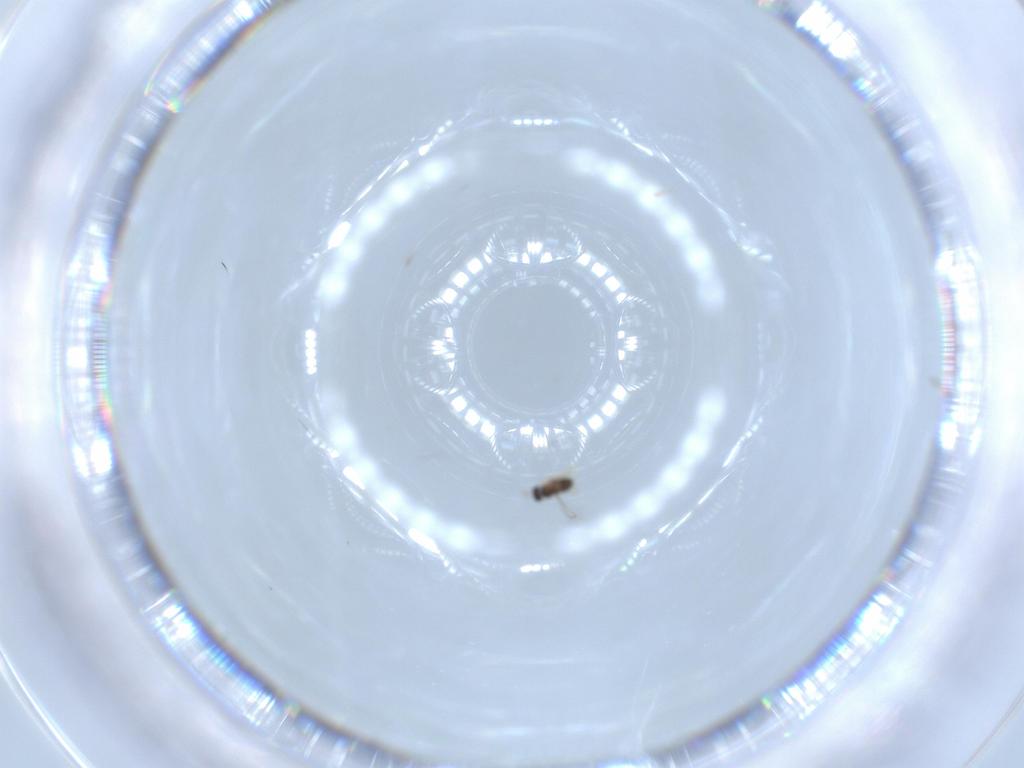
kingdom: Animalia
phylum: Arthropoda
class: Insecta
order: Hymenoptera
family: Mymaridae
